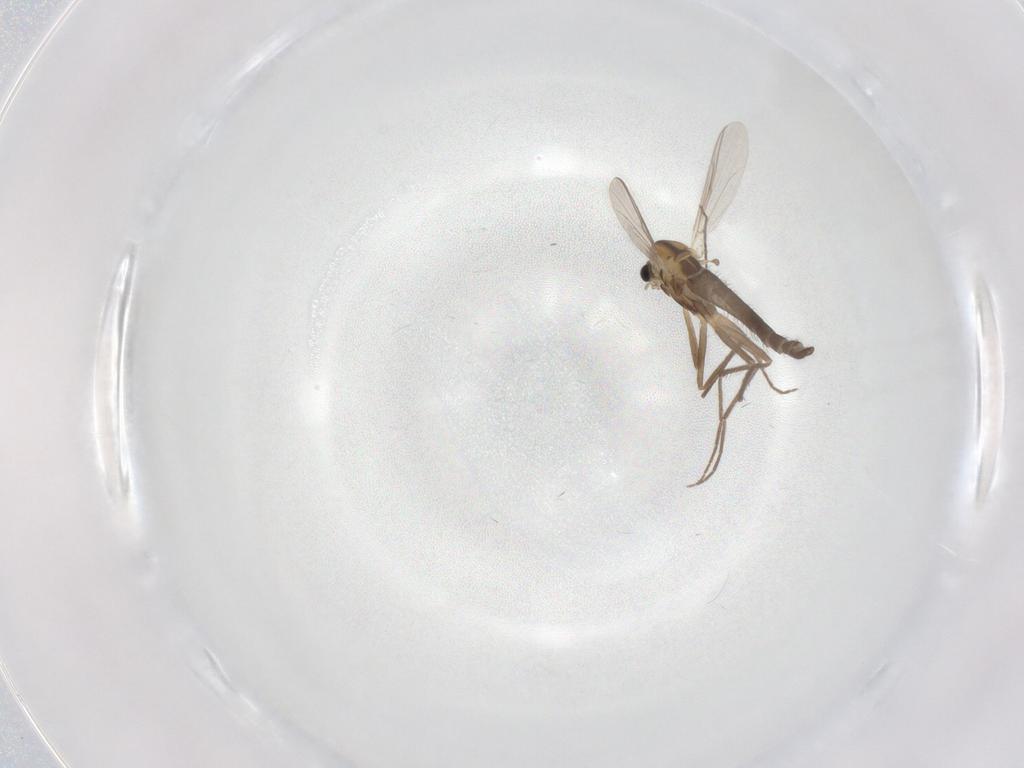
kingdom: Animalia
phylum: Arthropoda
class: Insecta
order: Diptera
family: Chironomidae
